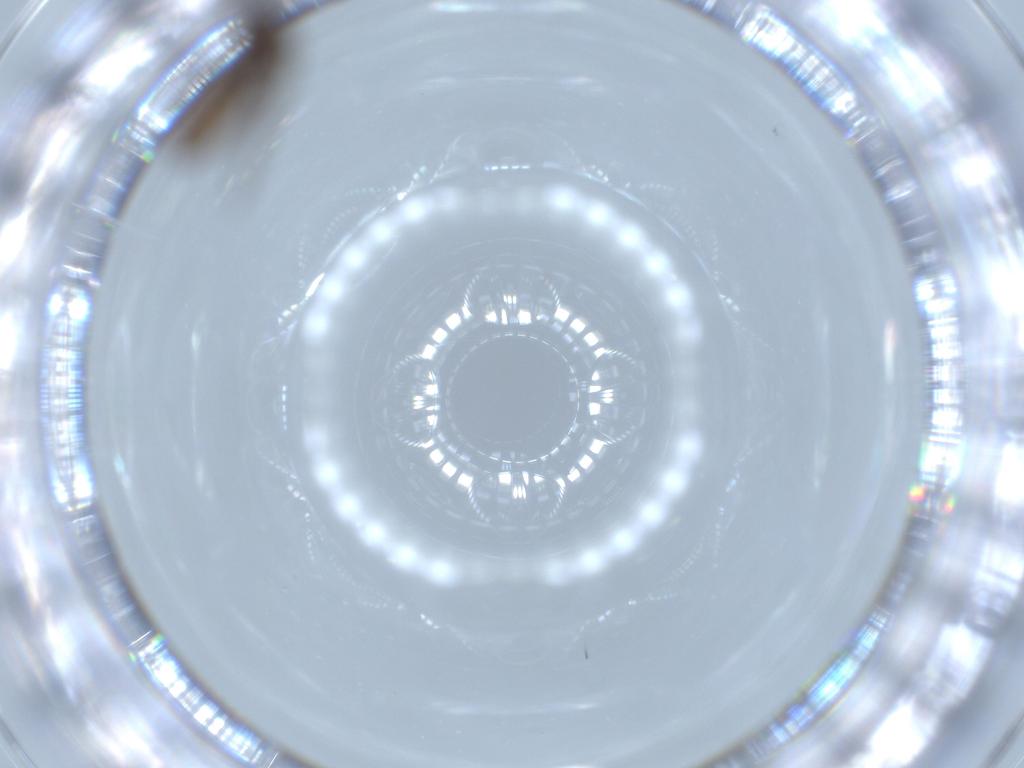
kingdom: Animalia
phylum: Arthropoda
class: Insecta
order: Diptera
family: Psychodidae
